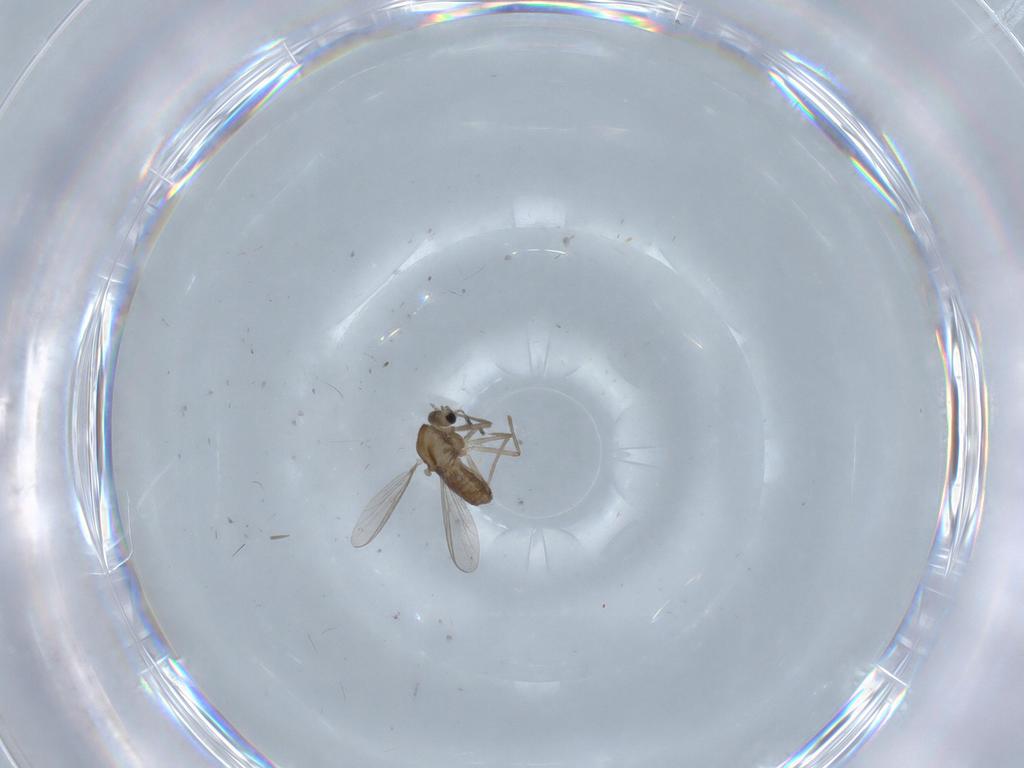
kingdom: Animalia
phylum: Arthropoda
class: Insecta
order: Diptera
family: Chironomidae
